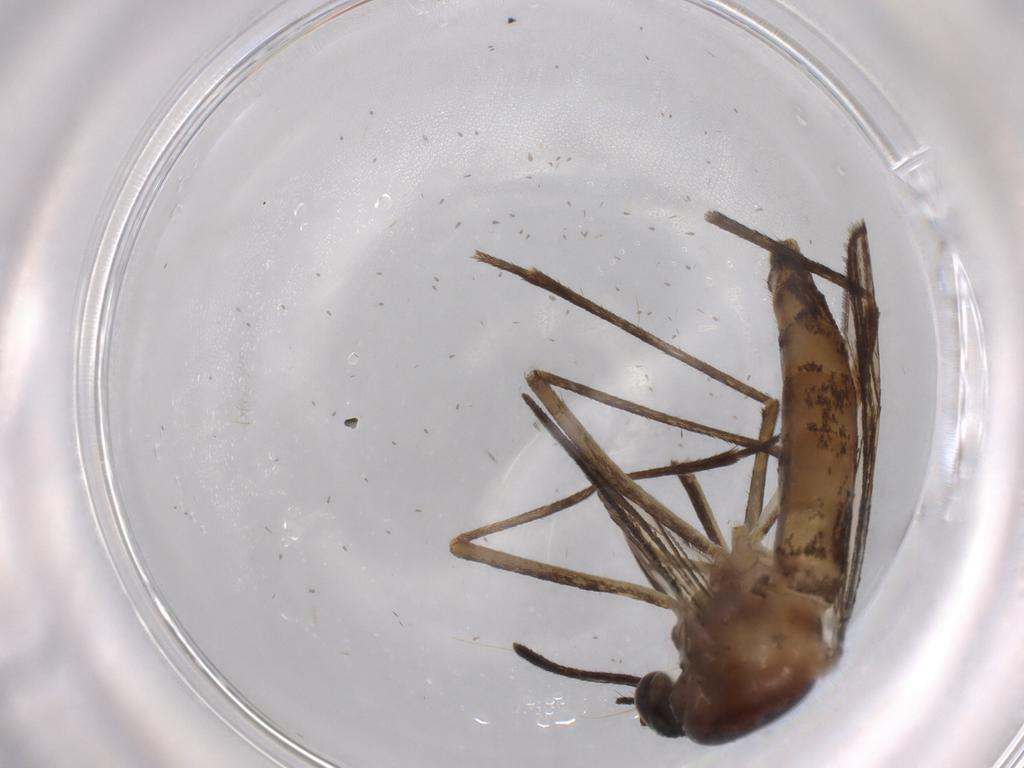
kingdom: Animalia
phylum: Arthropoda
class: Insecta
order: Diptera
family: Culicidae
